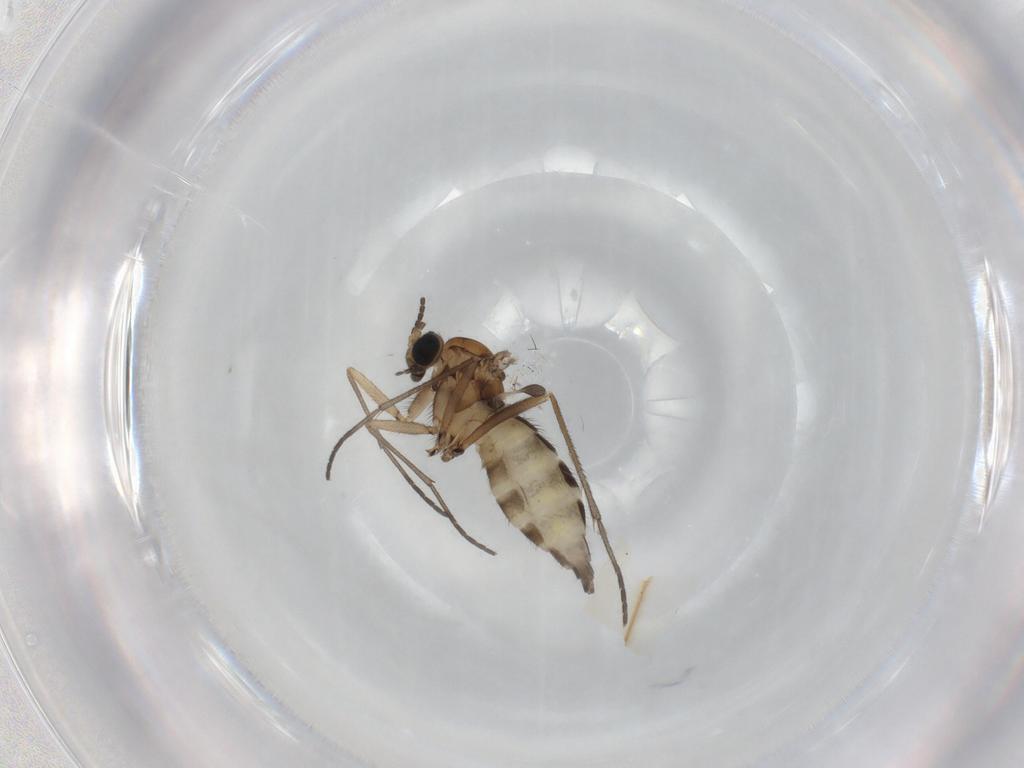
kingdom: Animalia
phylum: Arthropoda
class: Insecta
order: Diptera
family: Sciaridae
